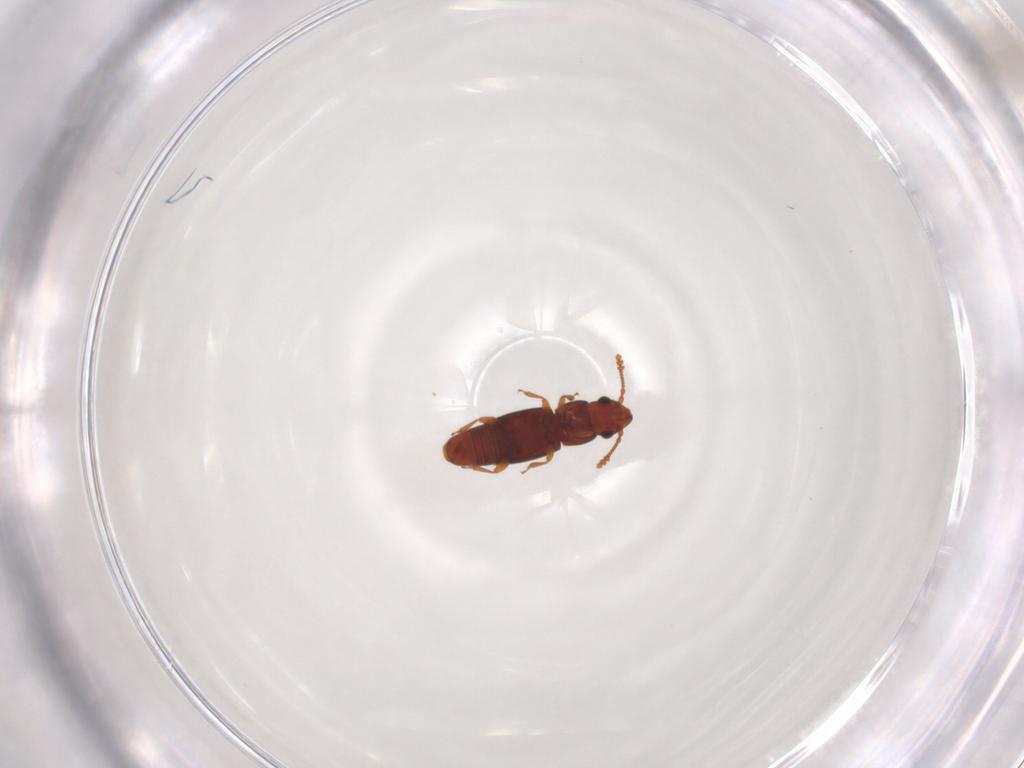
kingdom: Animalia
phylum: Arthropoda
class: Insecta
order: Coleoptera
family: Smicripidae
